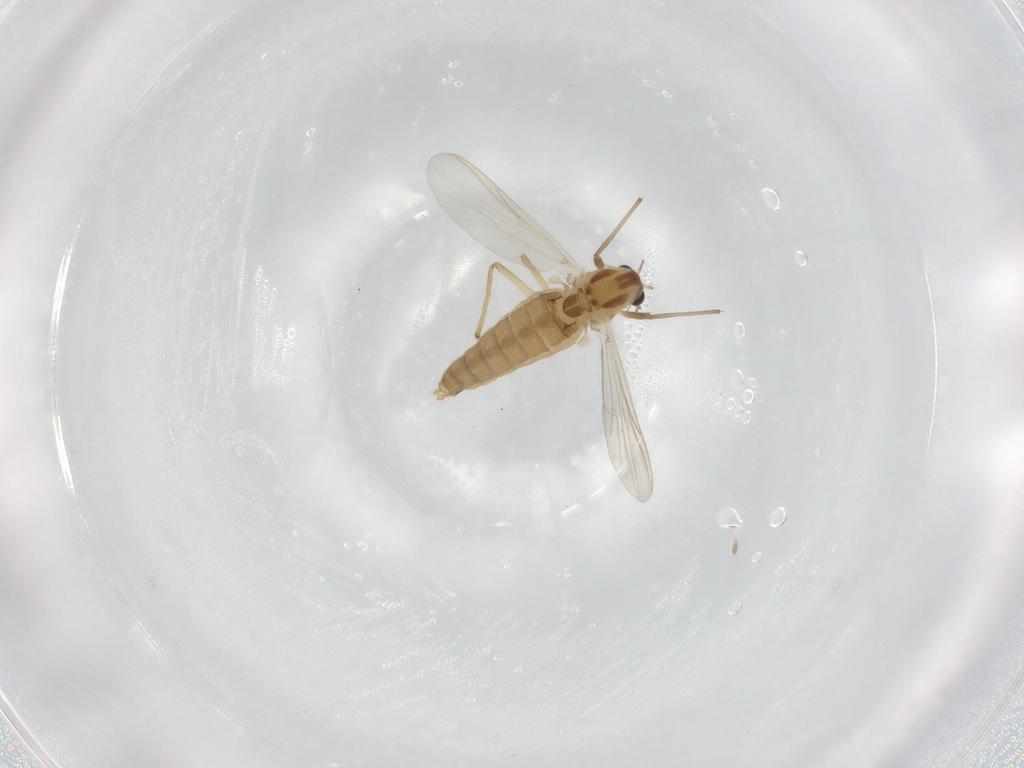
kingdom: Animalia
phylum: Arthropoda
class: Insecta
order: Diptera
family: Chironomidae
